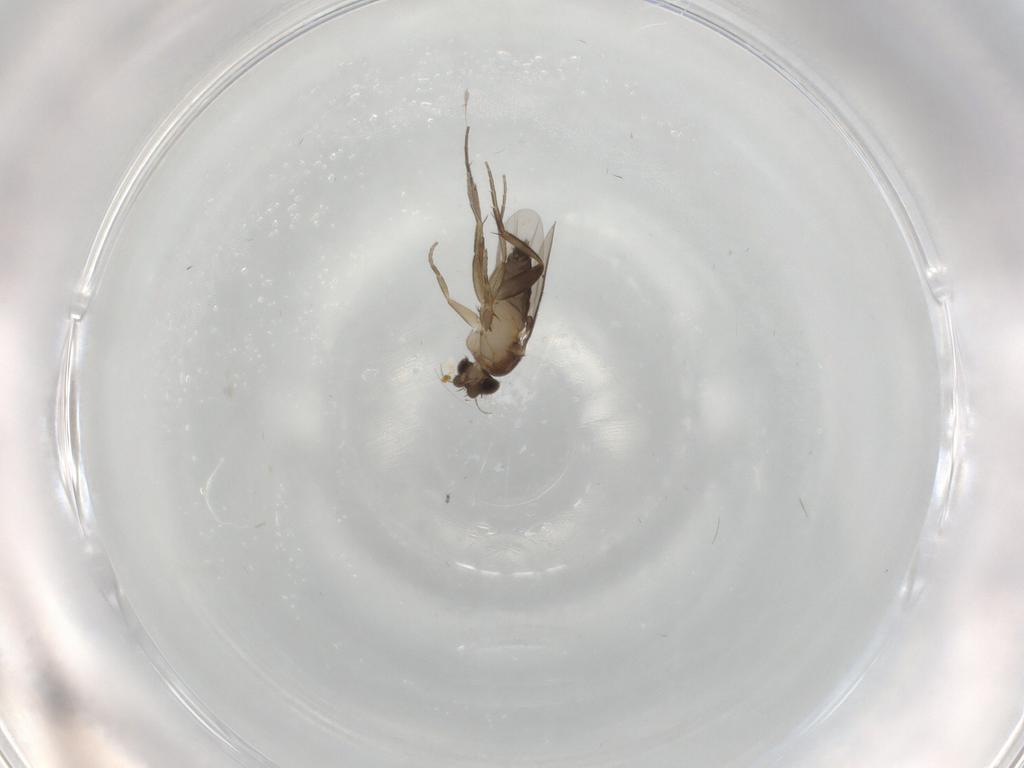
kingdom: Animalia
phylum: Arthropoda
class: Insecta
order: Diptera
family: Phoridae
